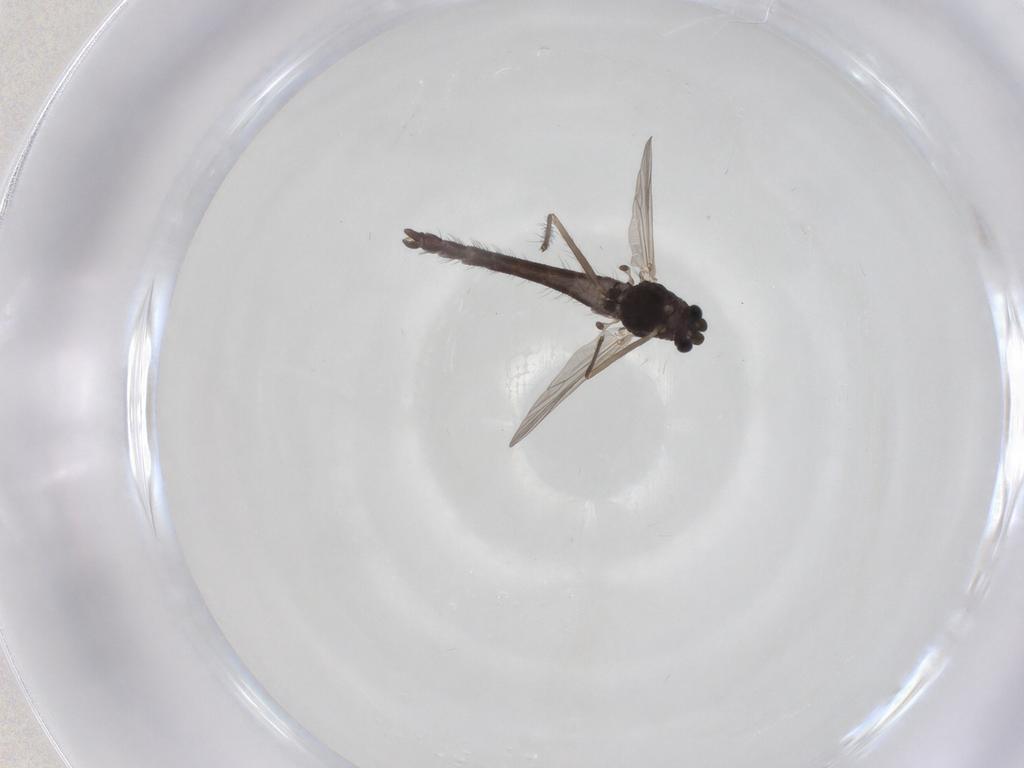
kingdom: Animalia
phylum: Arthropoda
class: Insecta
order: Diptera
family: Chironomidae
